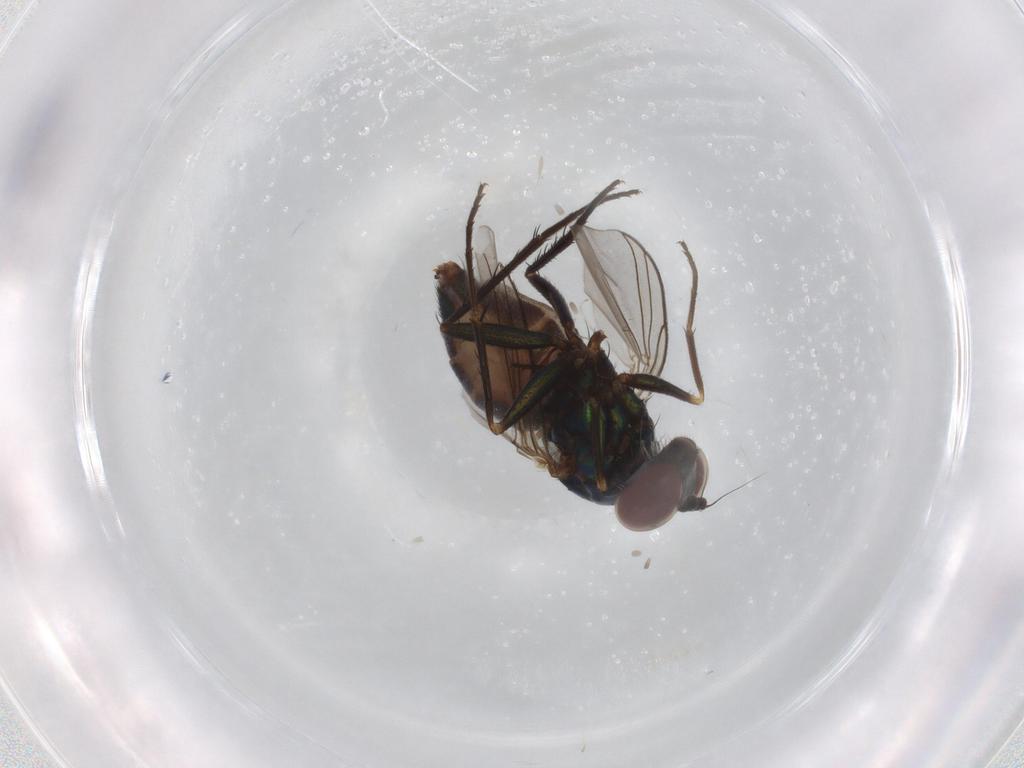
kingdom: Animalia
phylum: Arthropoda
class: Insecta
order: Diptera
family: Dolichopodidae
